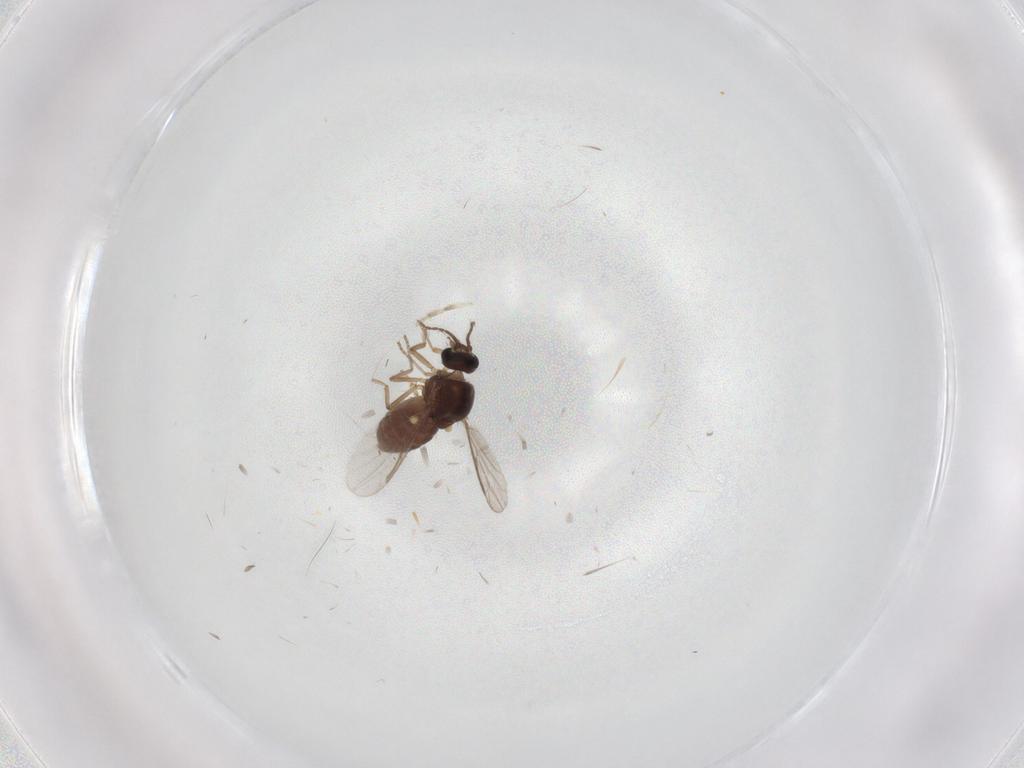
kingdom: Animalia
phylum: Arthropoda
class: Insecta
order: Diptera
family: Ceratopogonidae
